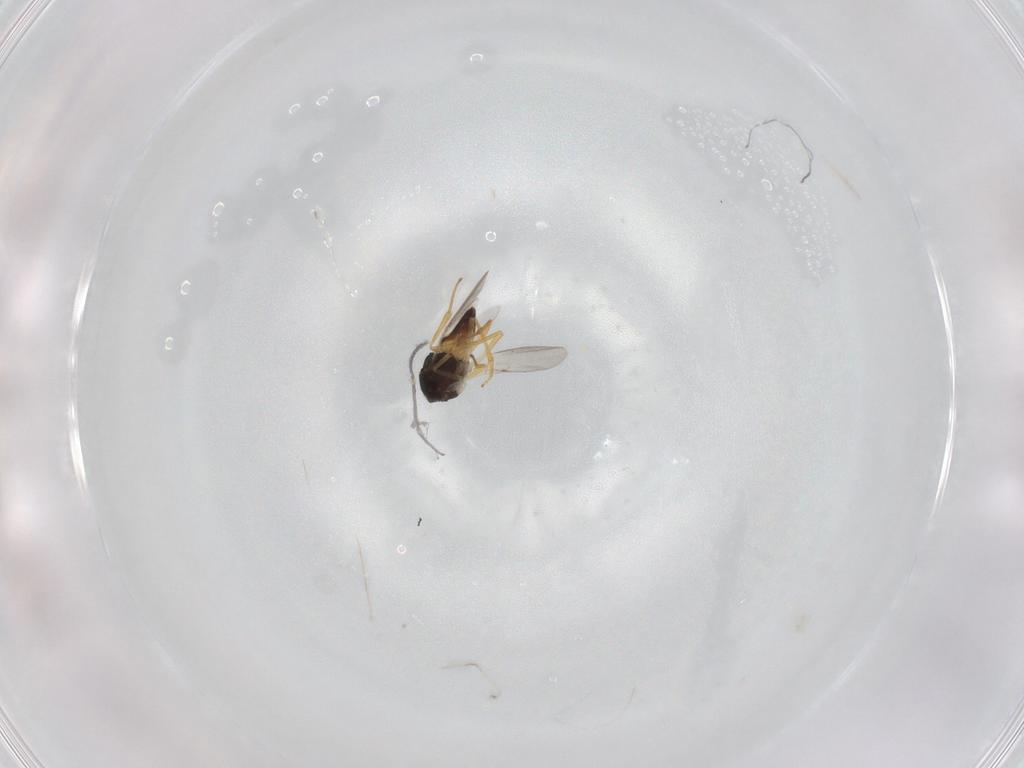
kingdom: Animalia
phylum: Arthropoda
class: Insecta
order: Hymenoptera
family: Encyrtidae
